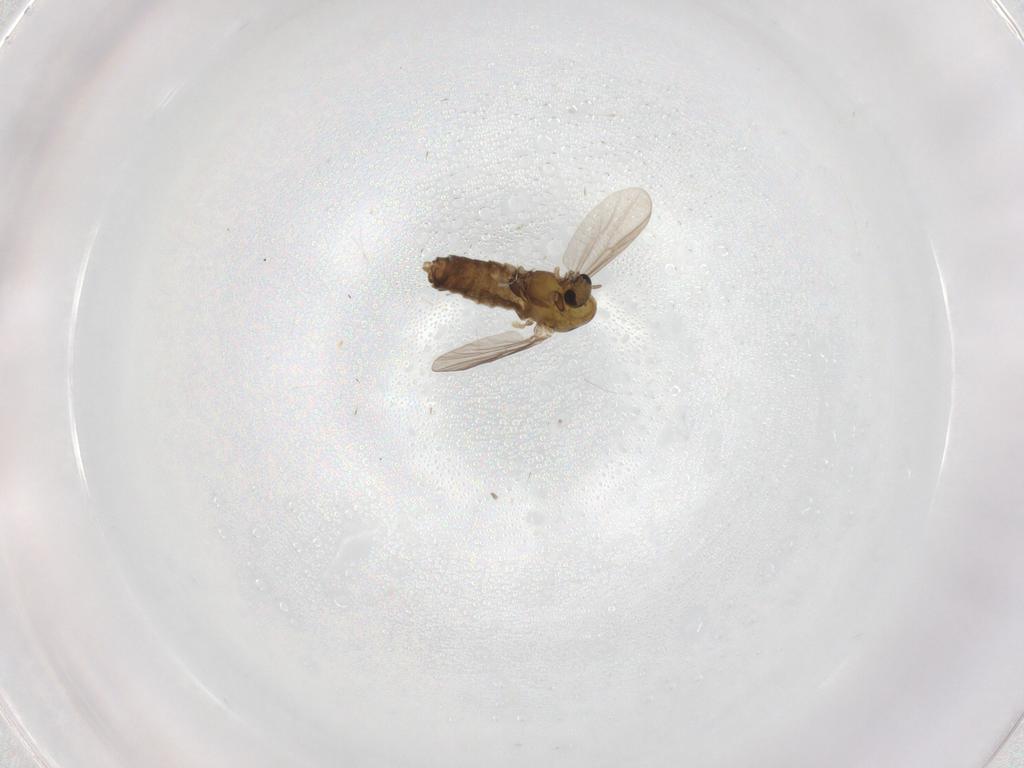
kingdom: Animalia
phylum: Arthropoda
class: Insecta
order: Diptera
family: Chironomidae
